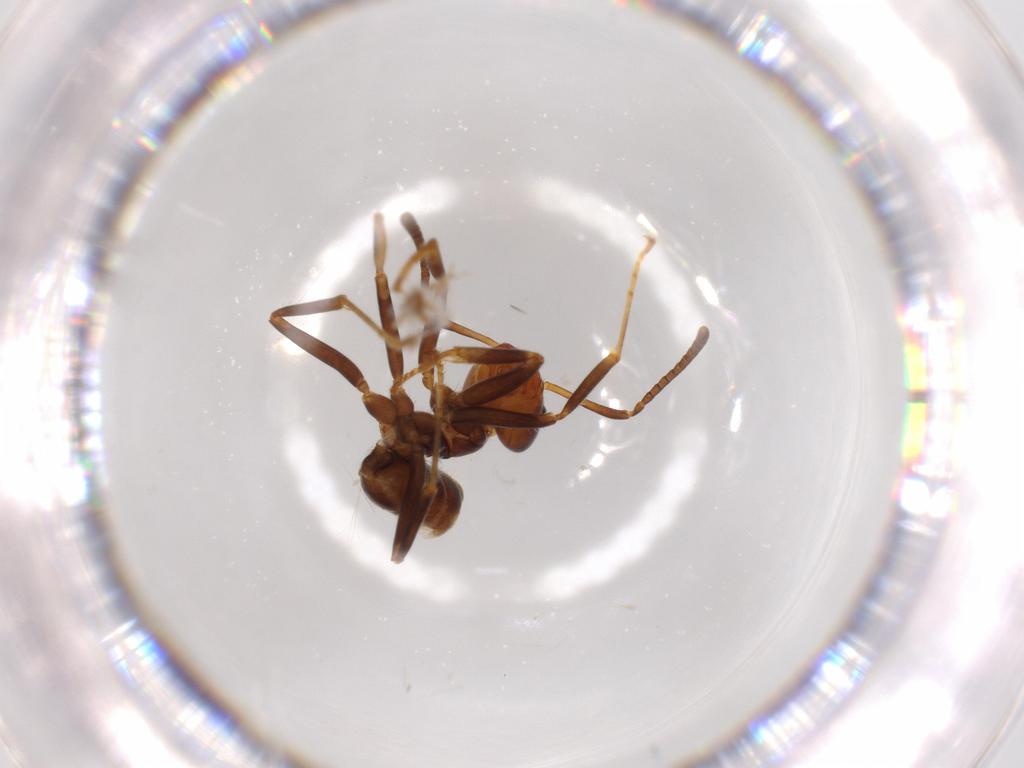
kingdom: Animalia
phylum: Arthropoda
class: Insecta
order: Hymenoptera
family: Formicidae
